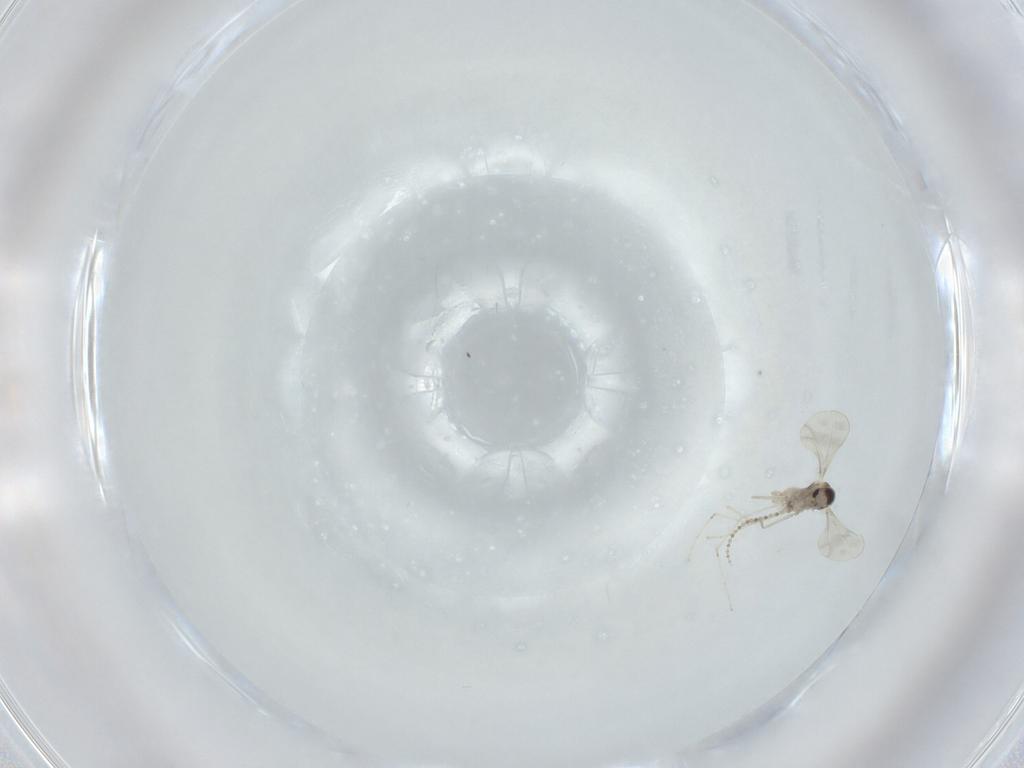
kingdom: Animalia
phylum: Arthropoda
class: Insecta
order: Diptera
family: Cecidomyiidae
